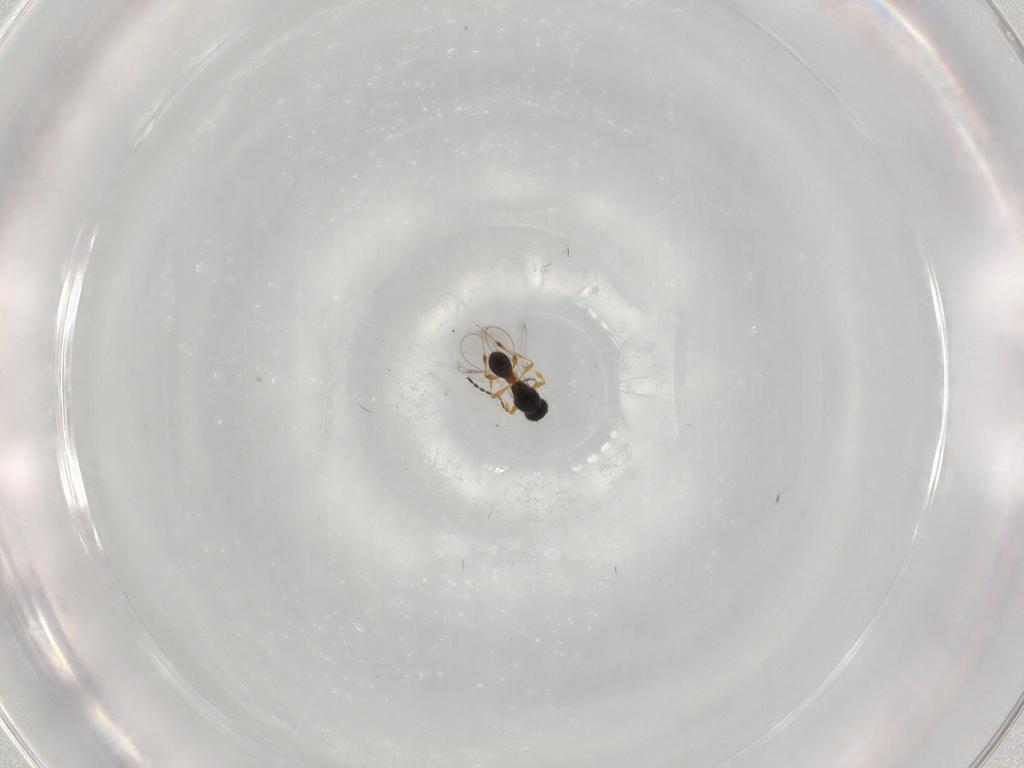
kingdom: Animalia
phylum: Arthropoda
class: Insecta
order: Hymenoptera
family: Platygastridae
